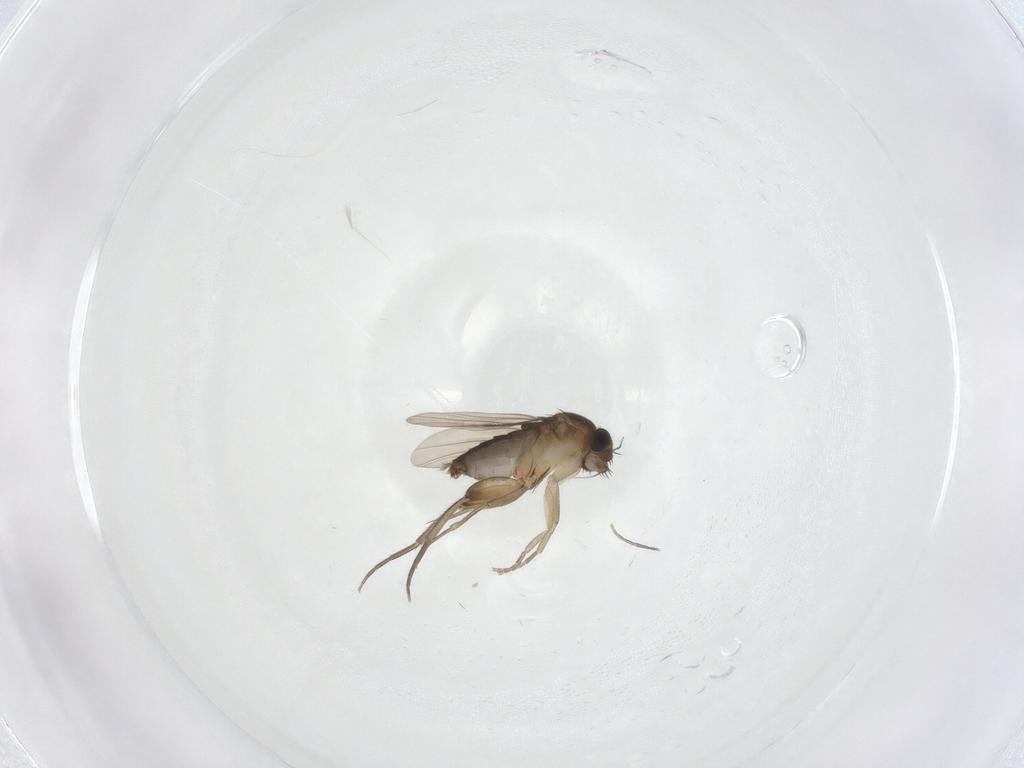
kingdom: Animalia
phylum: Arthropoda
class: Insecta
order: Diptera
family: Phoridae
